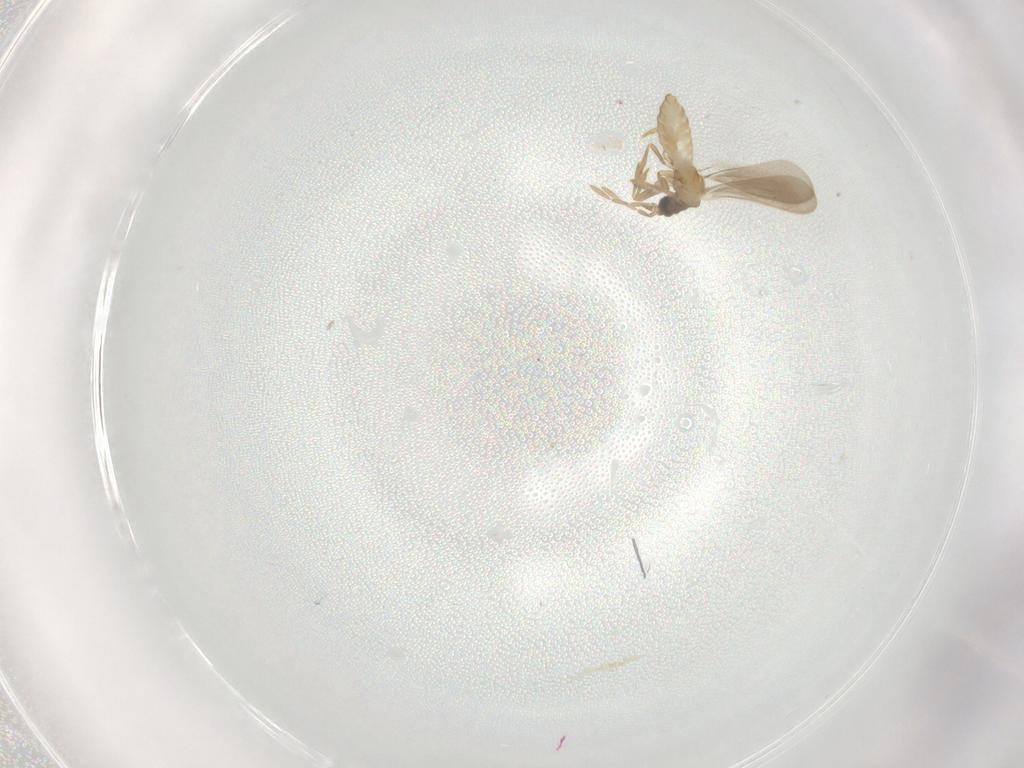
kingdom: Animalia
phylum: Arthropoda
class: Insecta
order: Hemiptera
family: Enicocephalidae
